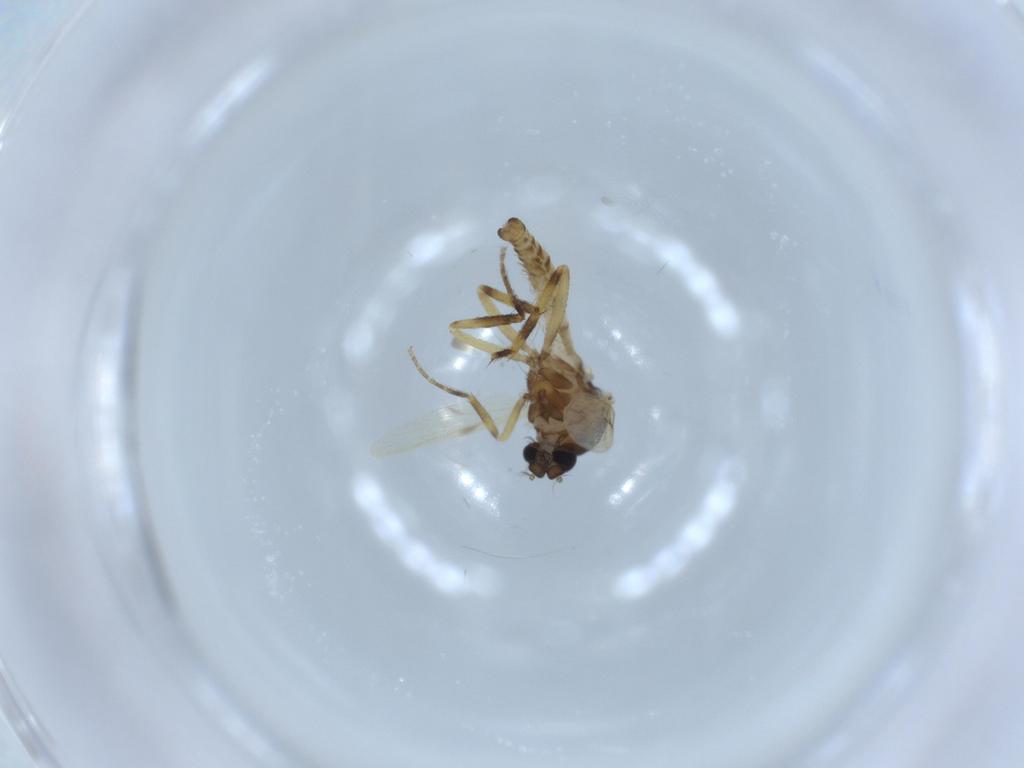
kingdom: Animalia
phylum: Arthropoda
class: Insecta
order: Diptera
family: Ceratopogonidae
